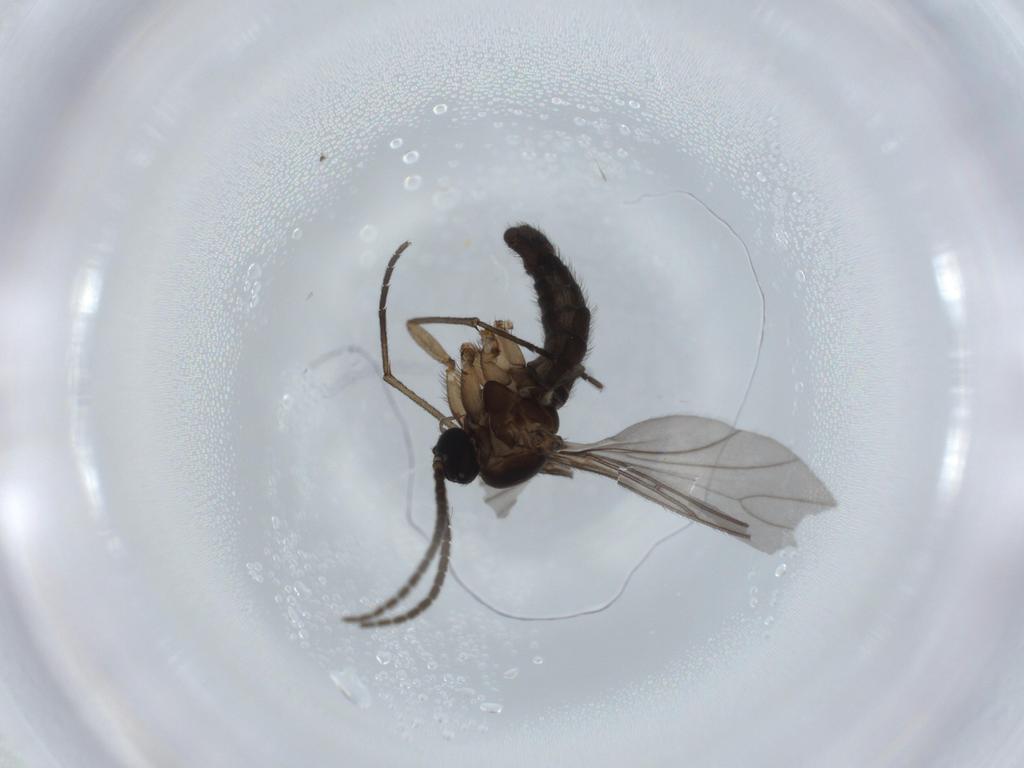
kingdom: Animalia
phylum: Arthropoda
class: Insecta
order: Diptera
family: Sciaridae
